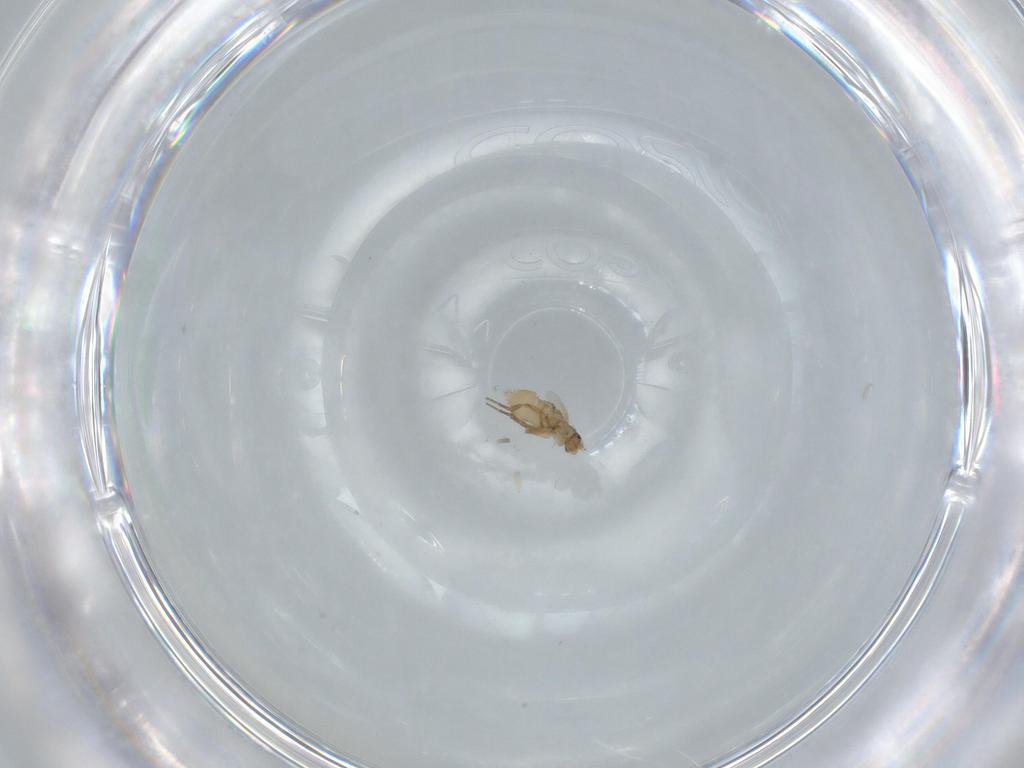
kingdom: Animalia
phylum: Arthropoda
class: Insecta
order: Diptera
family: Phoridae
